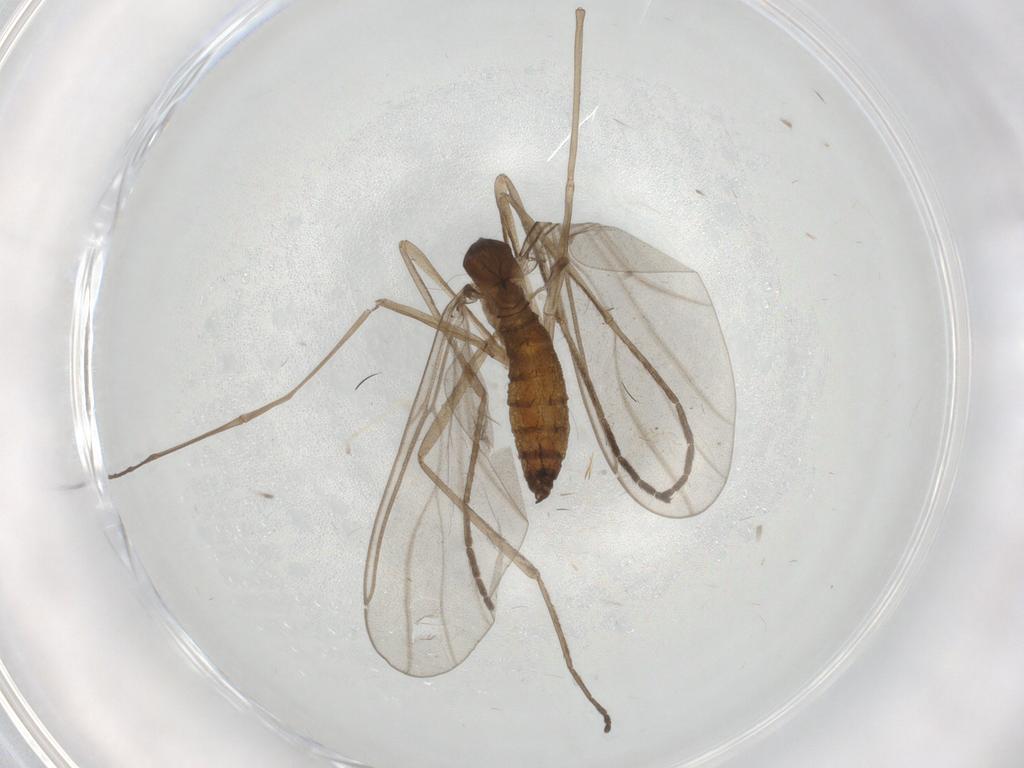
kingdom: Animalia
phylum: Arthropoda
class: Insecta
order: Diptera
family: Cecidomyiidae
